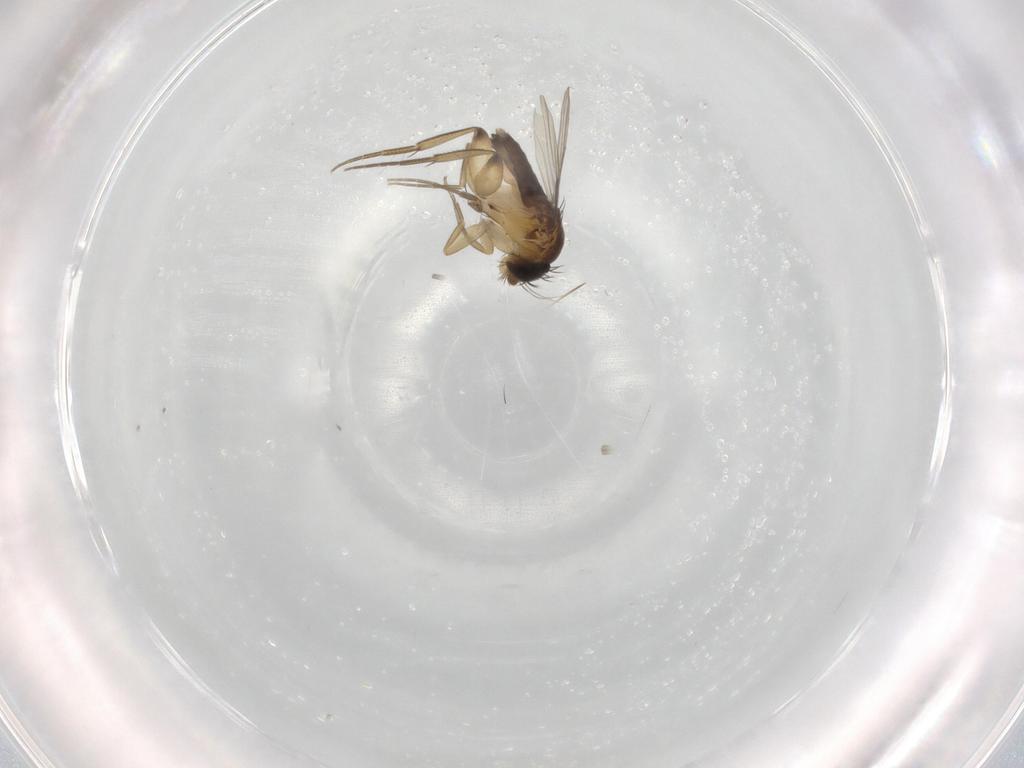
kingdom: Animalia
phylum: Arthropoda
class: Insecta
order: Diptera
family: Phoridae
